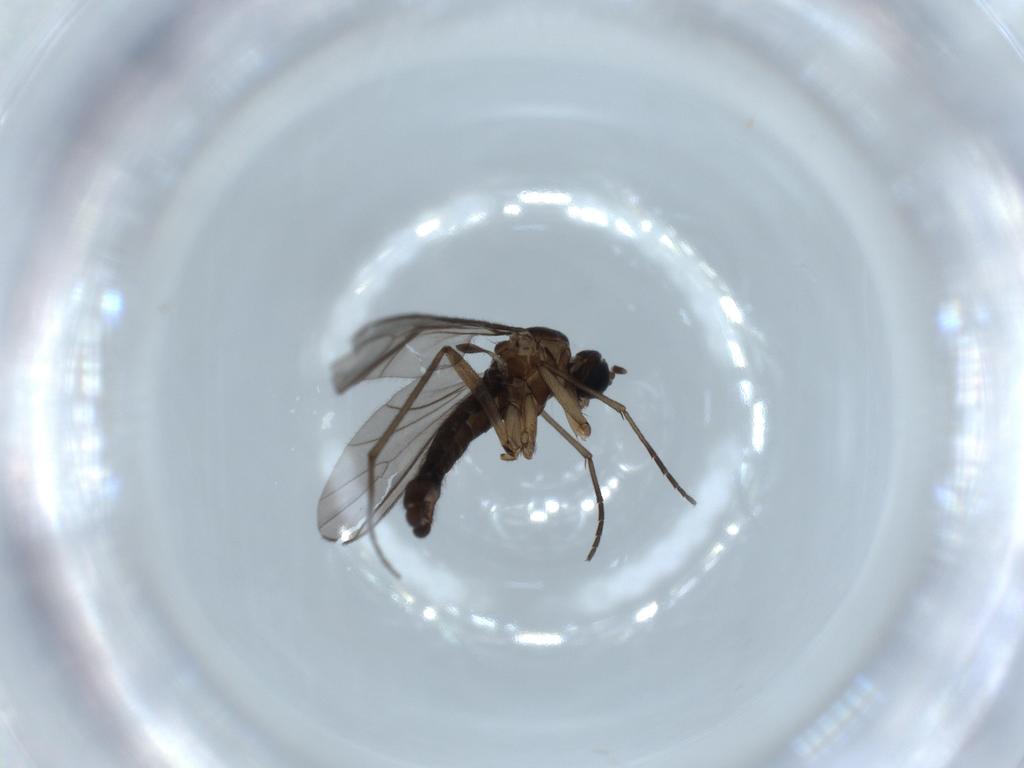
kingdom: Animalia
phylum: Arthropoda
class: Insecta
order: Diptera
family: Sciaridae
